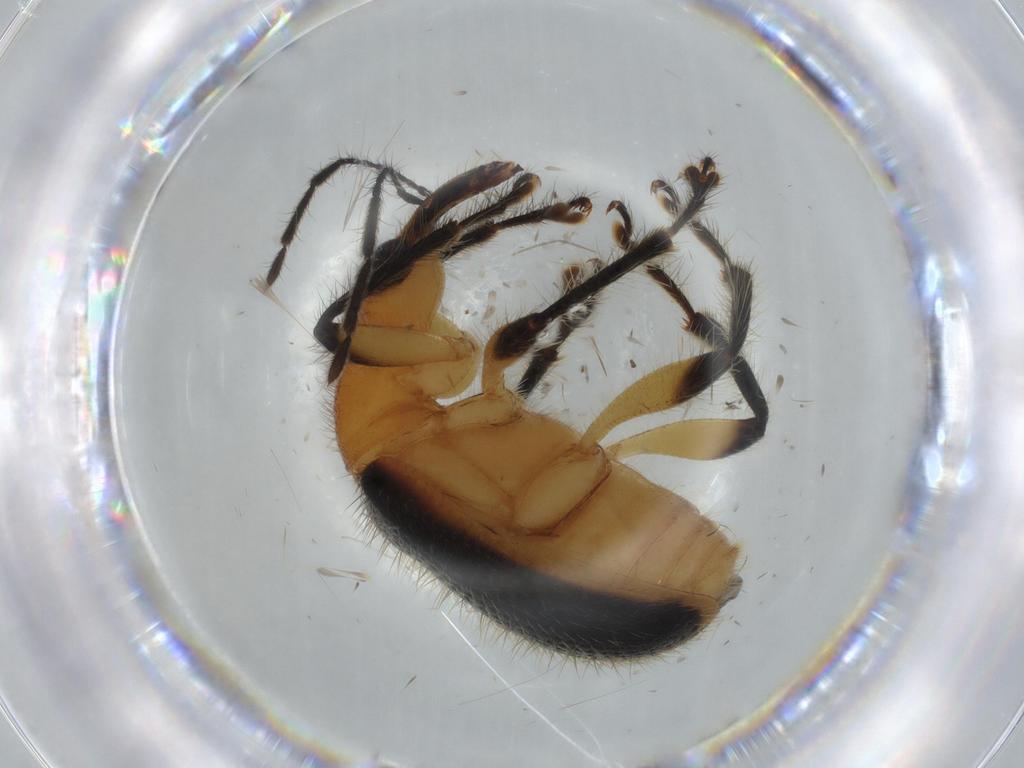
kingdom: Animalia
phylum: Arthropoda
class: Insecta
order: Coleoptera
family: Attelabidae
